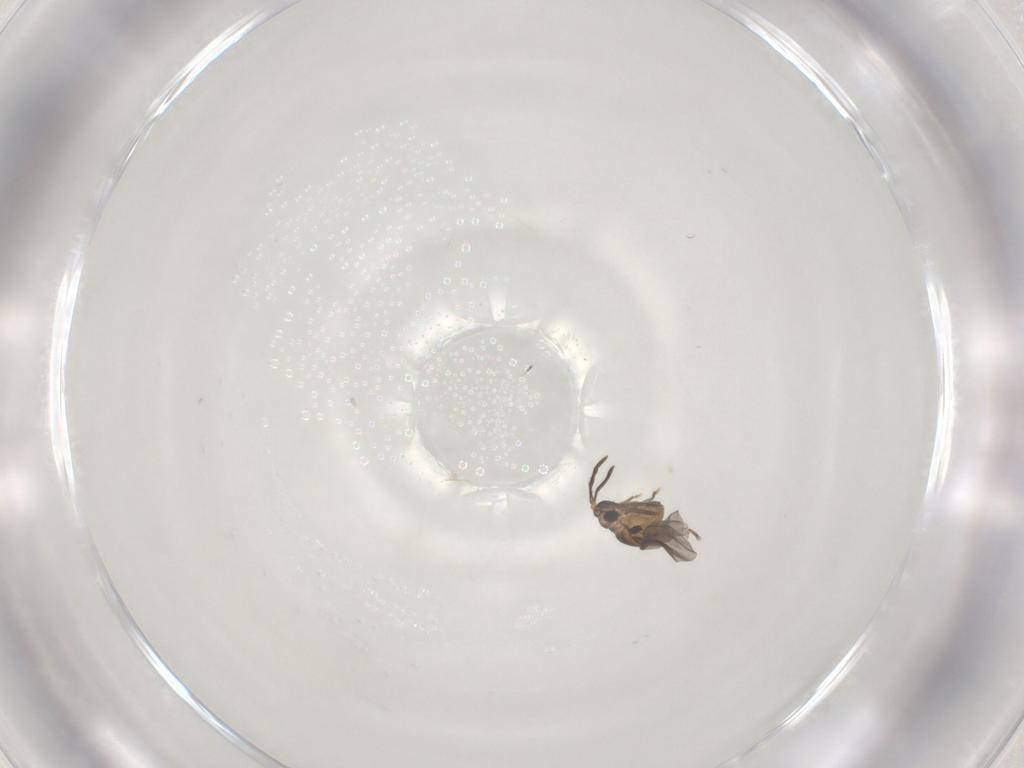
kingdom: Animalia
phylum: Arthropoda
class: Insecta
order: Strepsiptera
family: Myrmecolacidae
